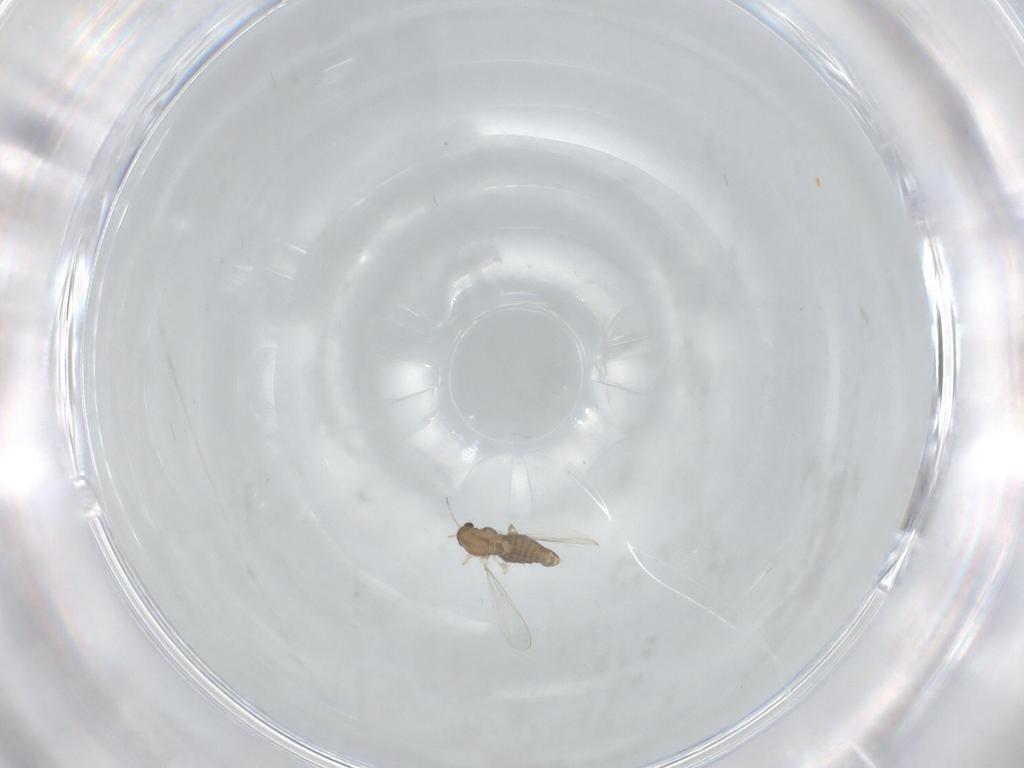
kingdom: Animalia
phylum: Arthropoda
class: Insecta
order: Diptera
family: Chironomidae
